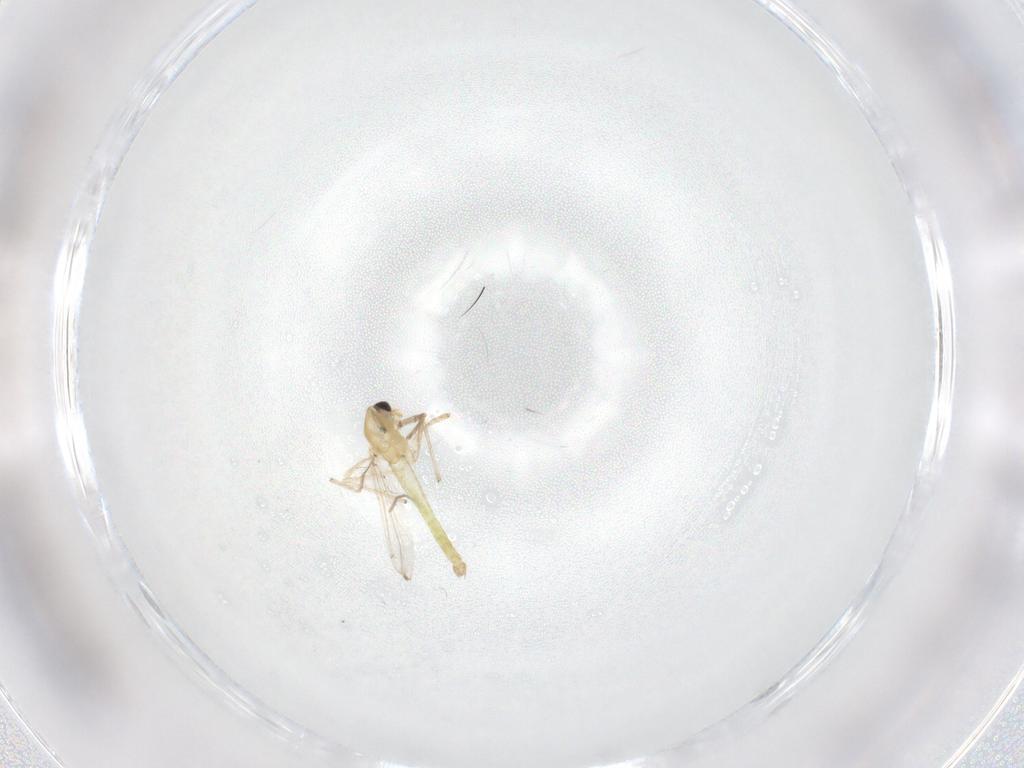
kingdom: Animalia
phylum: Arthropoda
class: Insecta
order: Diptera
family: Chironomidae
